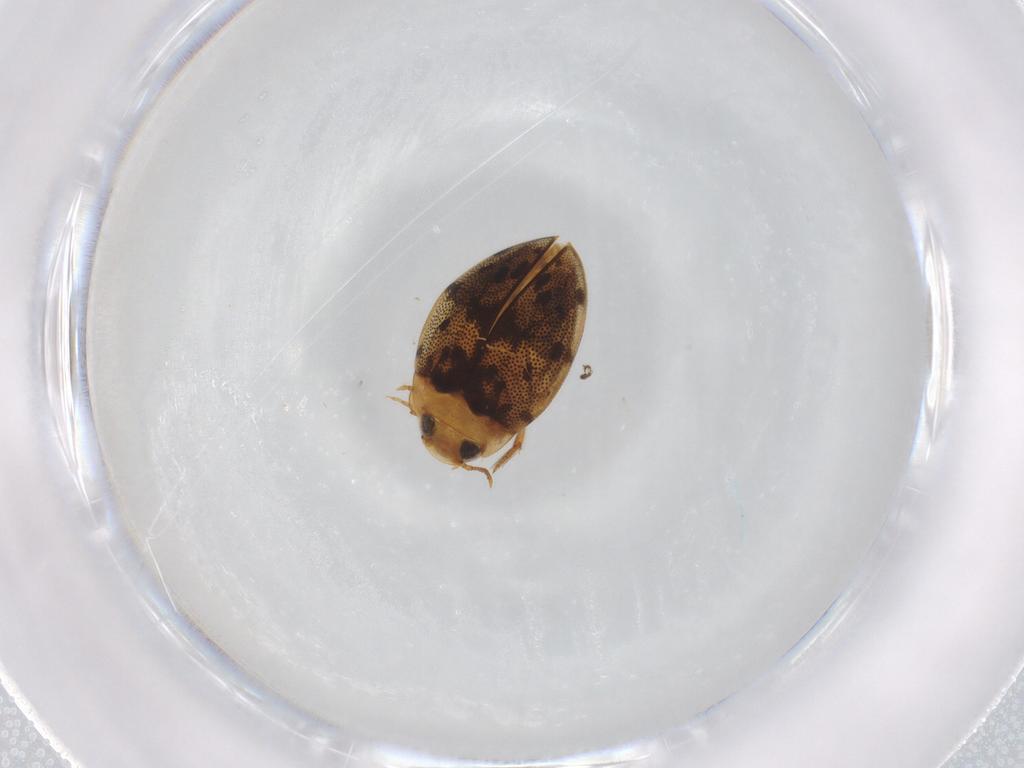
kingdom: Animalia
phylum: Arthropoda
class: Insecta
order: Coleoptera
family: Dytiscidae
